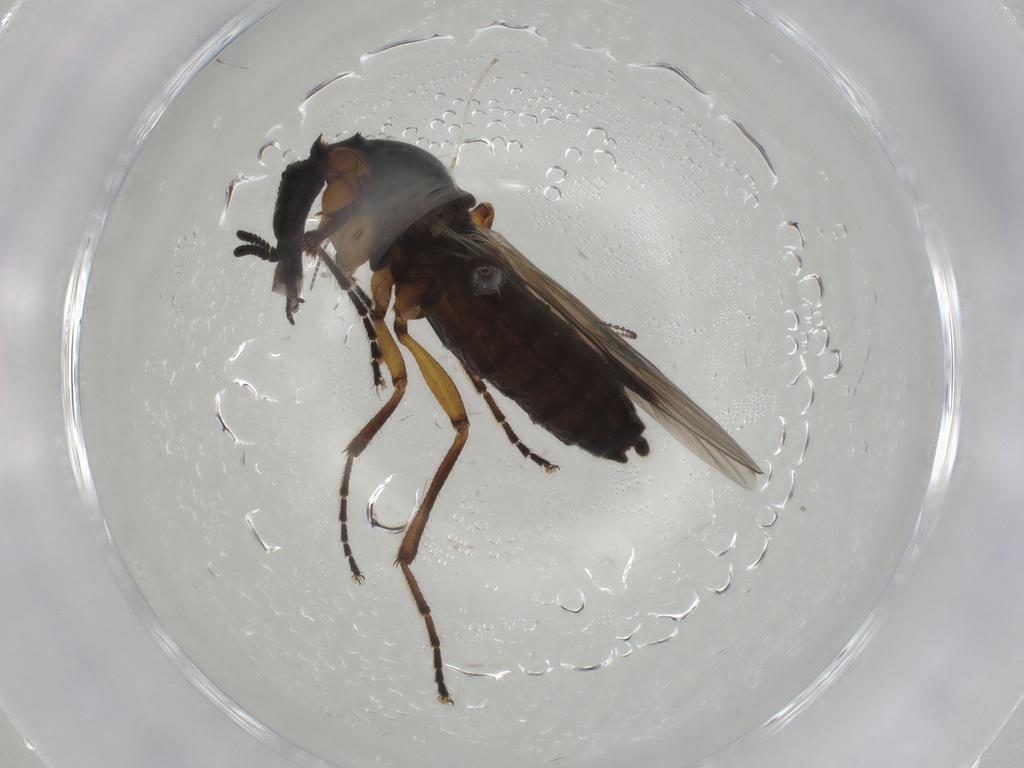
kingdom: Animalia
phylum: Arthropoda
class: Insecta
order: Diptera
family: Bibionidae
